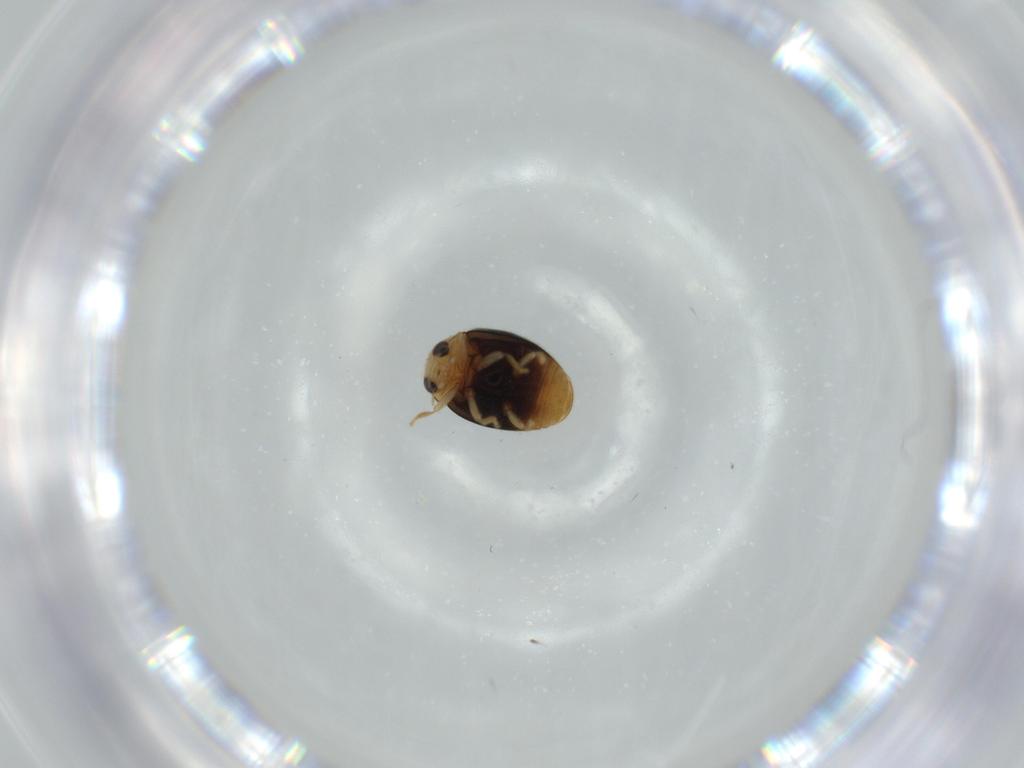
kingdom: Animalia
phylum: Arthropoda
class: Insecta
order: Coleoptera
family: Coccinellidae
